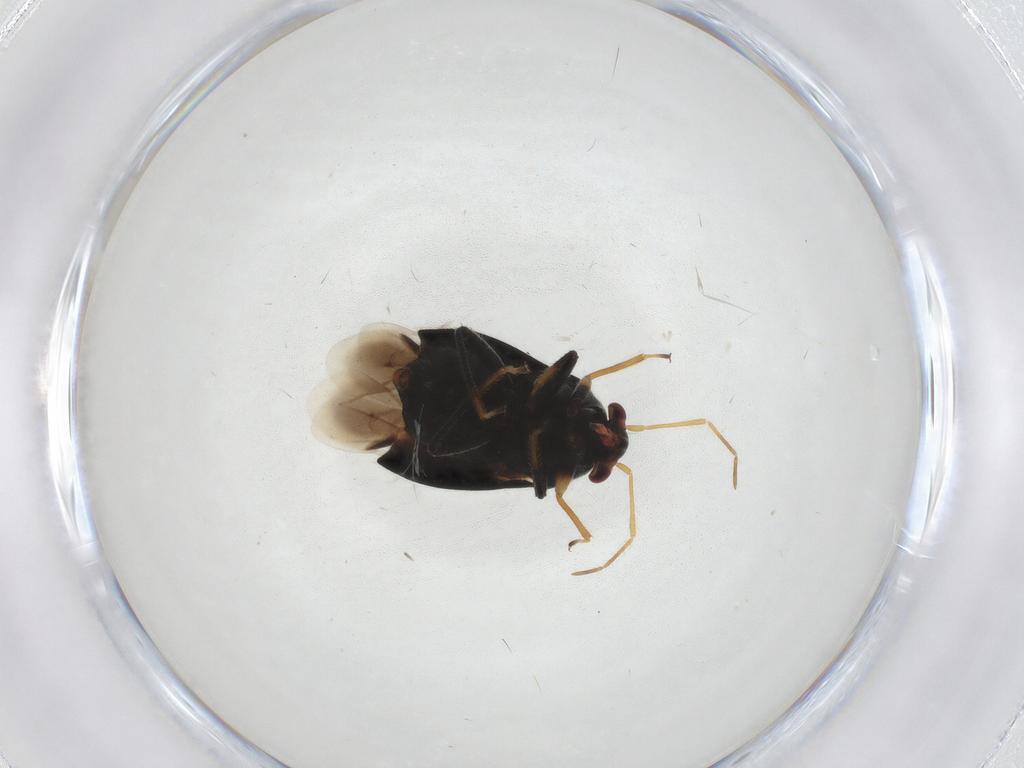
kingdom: Animalia
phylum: Arthropoda
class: Insecta
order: Hemiptera
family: Miridae
